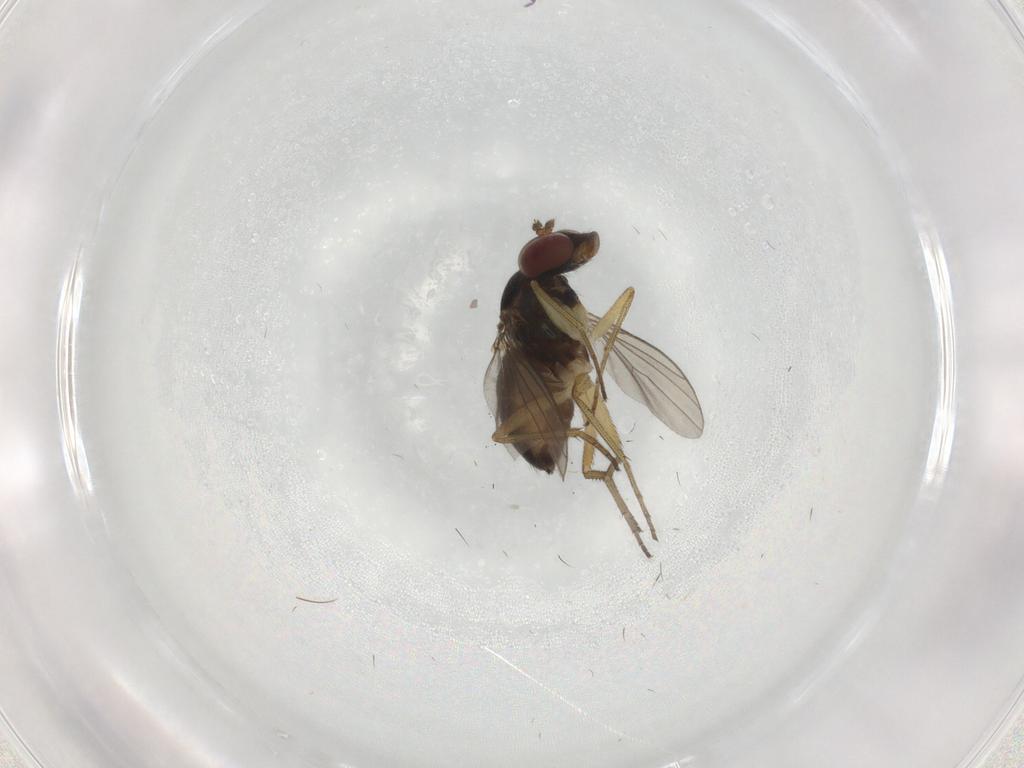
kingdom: Animalia
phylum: Arthropoda
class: Insecta
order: Diptera
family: Dolichopodidae
